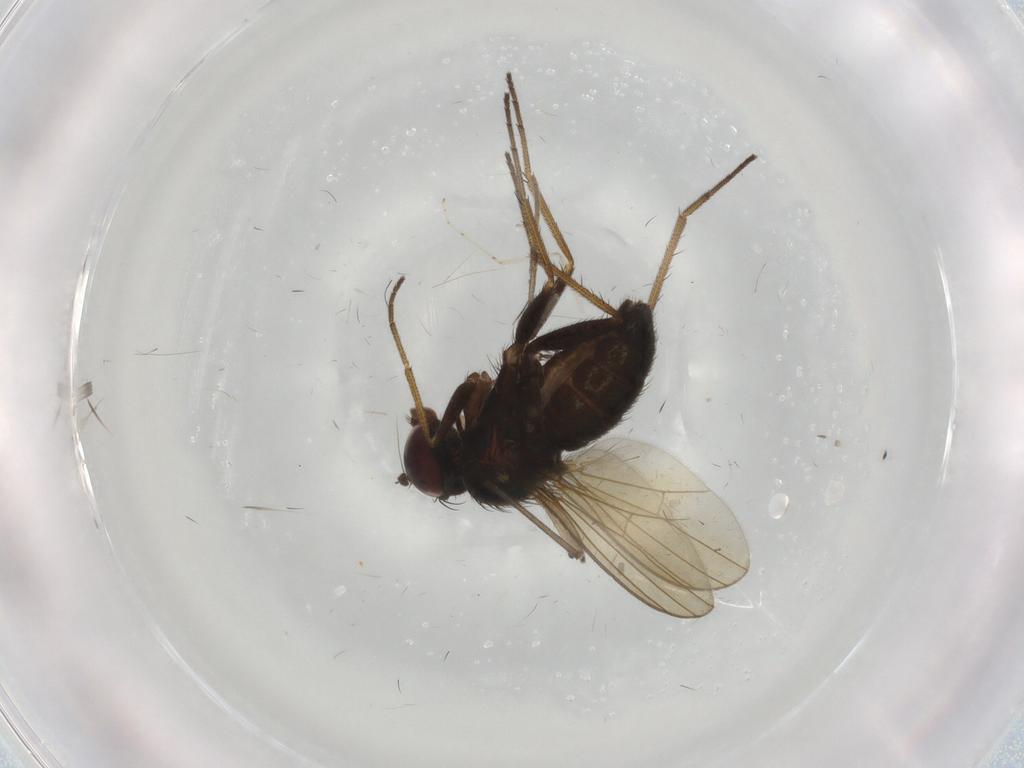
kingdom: Animalia
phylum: Arthropoda
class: Insecta
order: Diptera
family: Dolichopodidae
